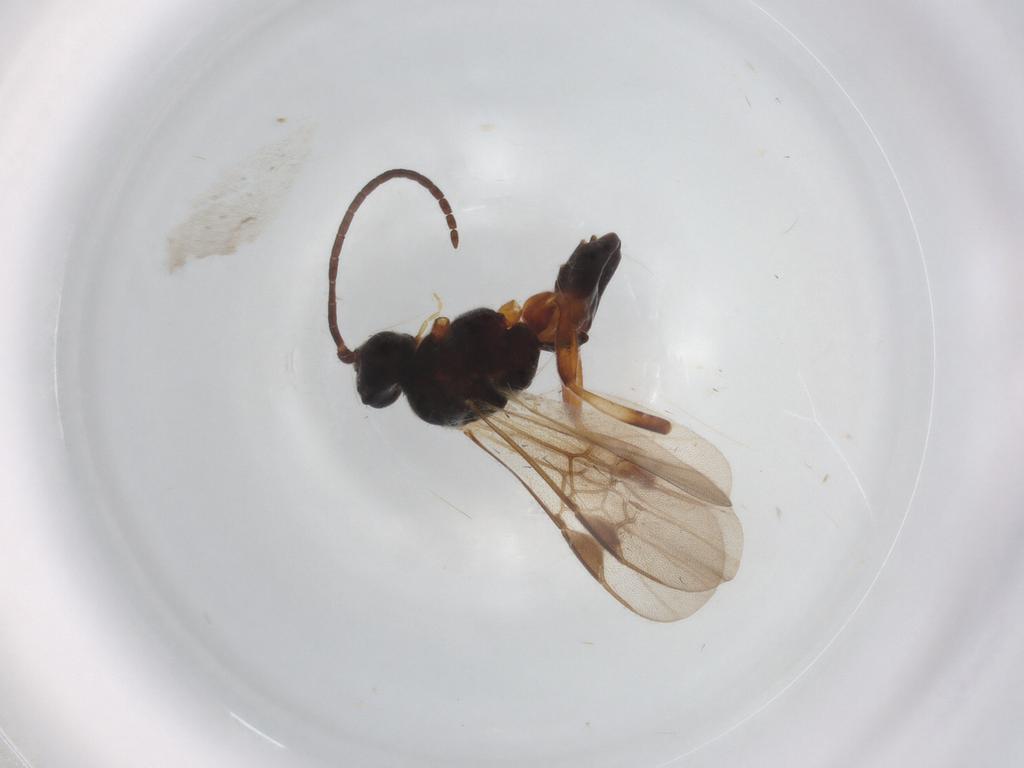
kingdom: Animalia
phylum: Arthropoda
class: Insecta
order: Hymenoptera
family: Braconidae
